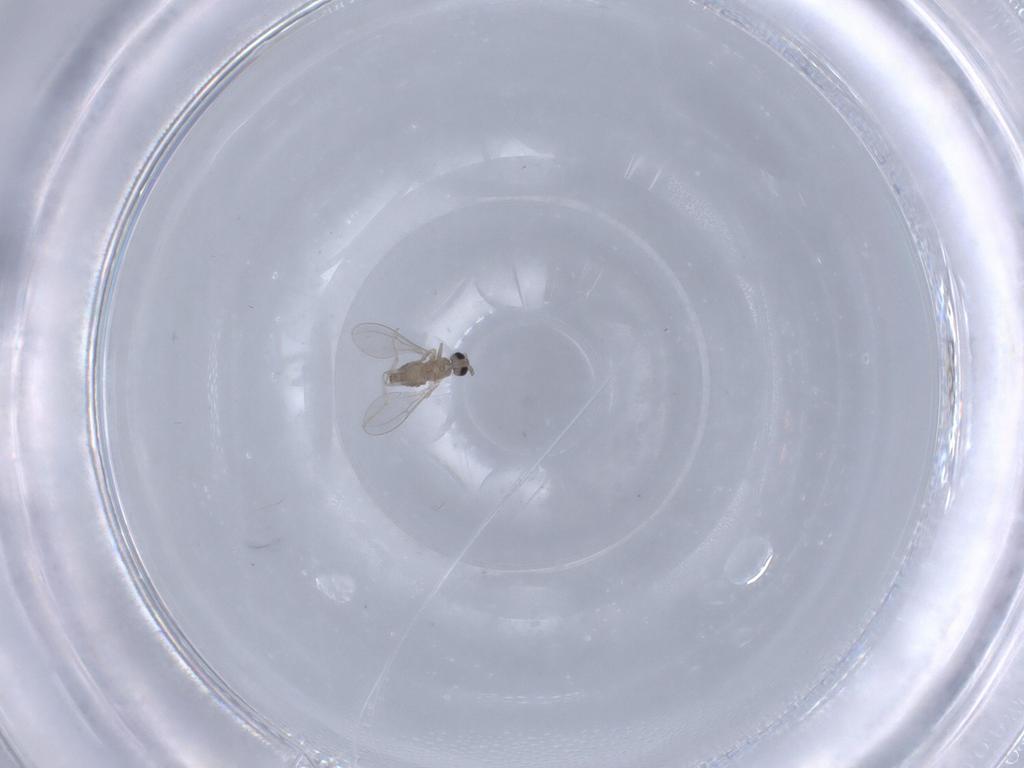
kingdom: Animalia
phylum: Arthropoda
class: Insecta
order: Diptera
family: Cecidomyiidae
